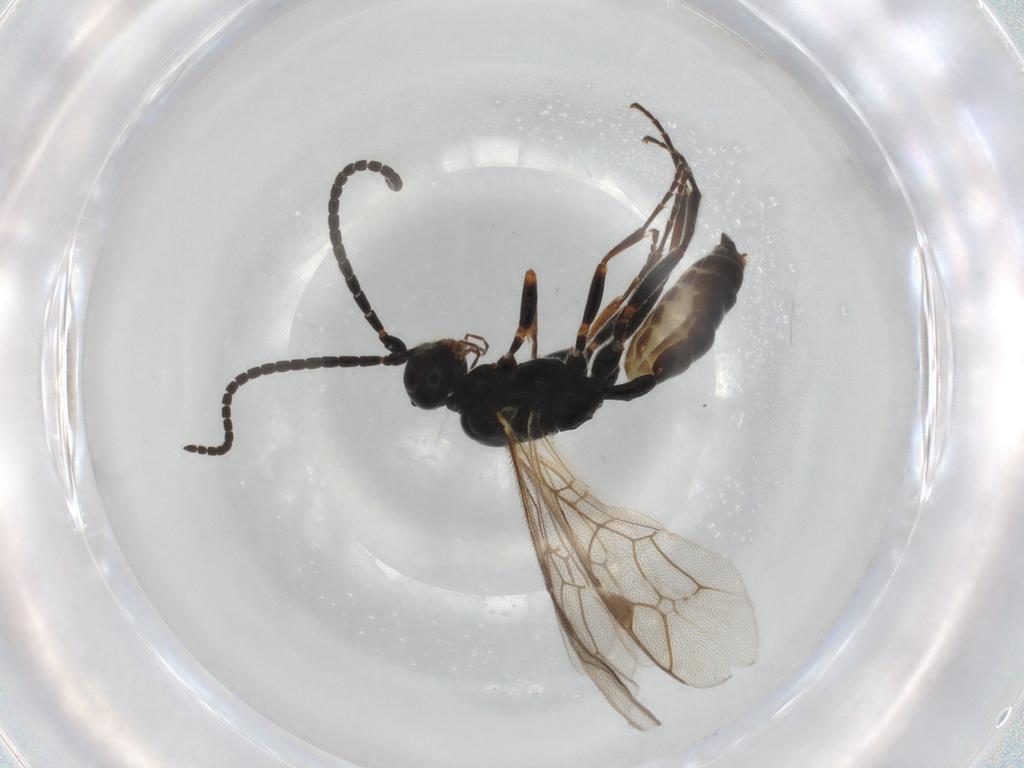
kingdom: Animalia
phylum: Arthropoda
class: Insecta
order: Hymenoptera
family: Ichneumonidae
